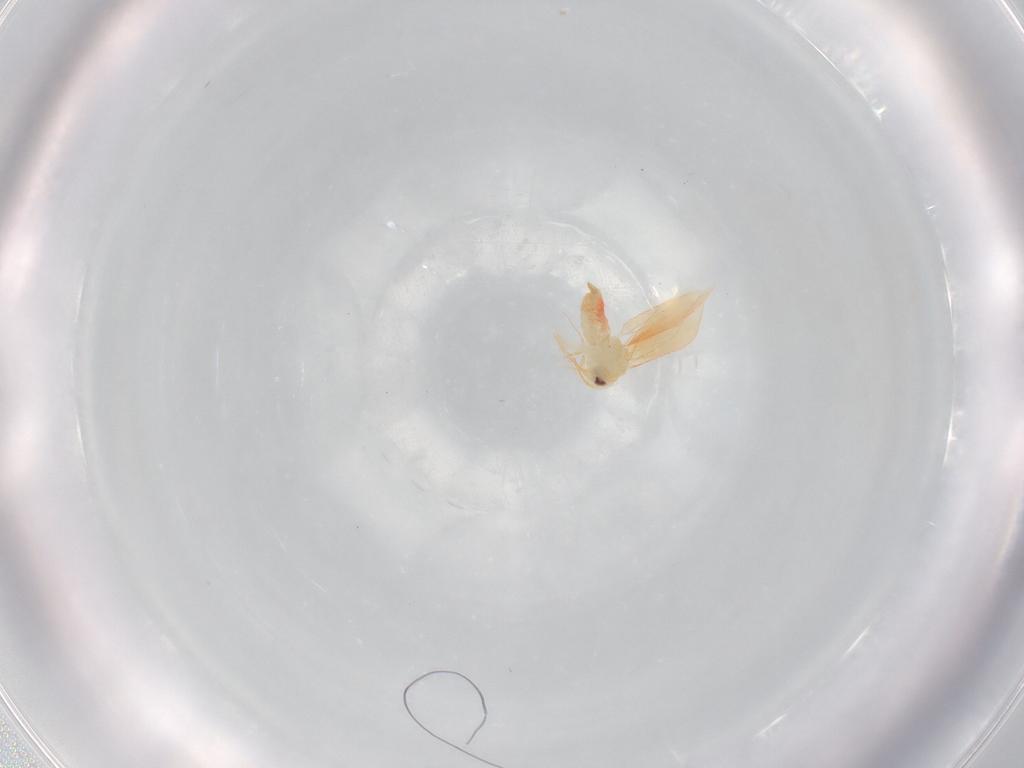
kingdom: Animalia
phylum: Arthropoda
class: Insecta
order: Hemiptera
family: Aleyrodidae
